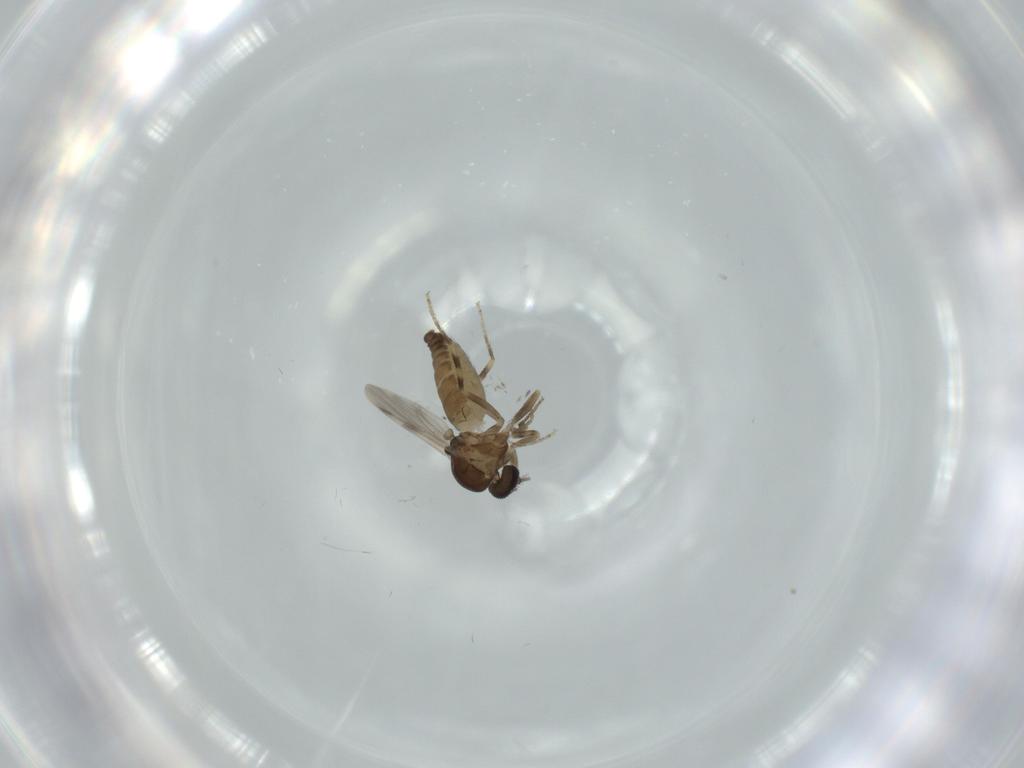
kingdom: Animalia
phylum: Arthropoda
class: Insecta
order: Diptera
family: Ceratopogonidae
